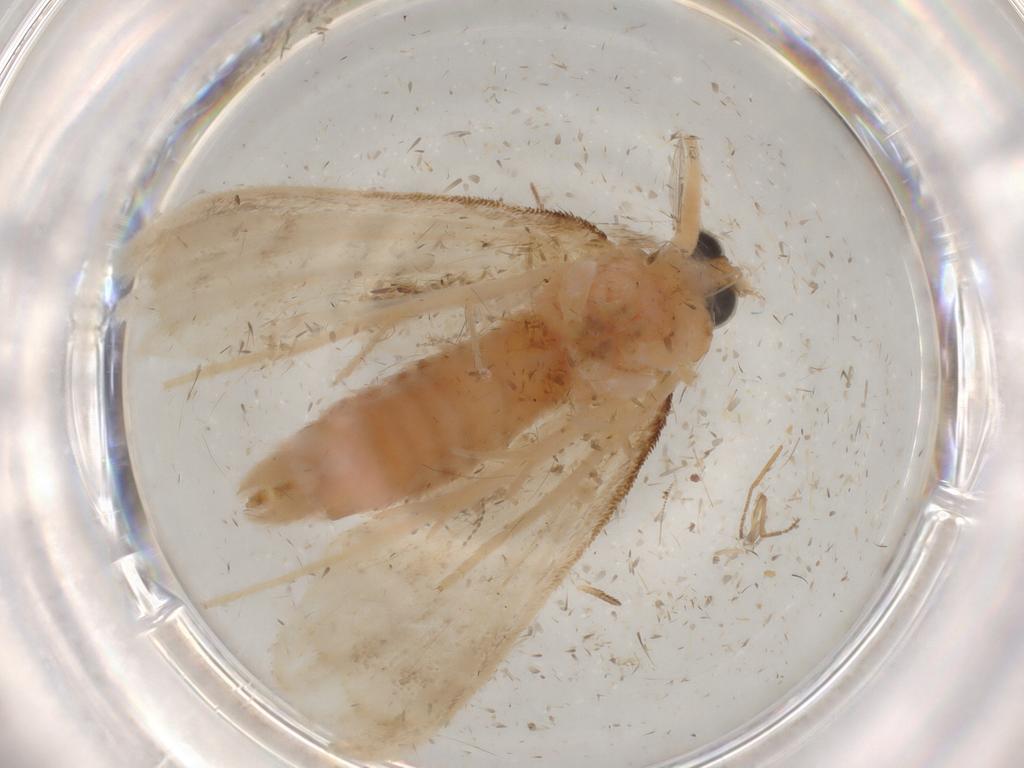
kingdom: Animalia
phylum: Arthropoda
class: Insecta
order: Lepidoptera
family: Crambidae
